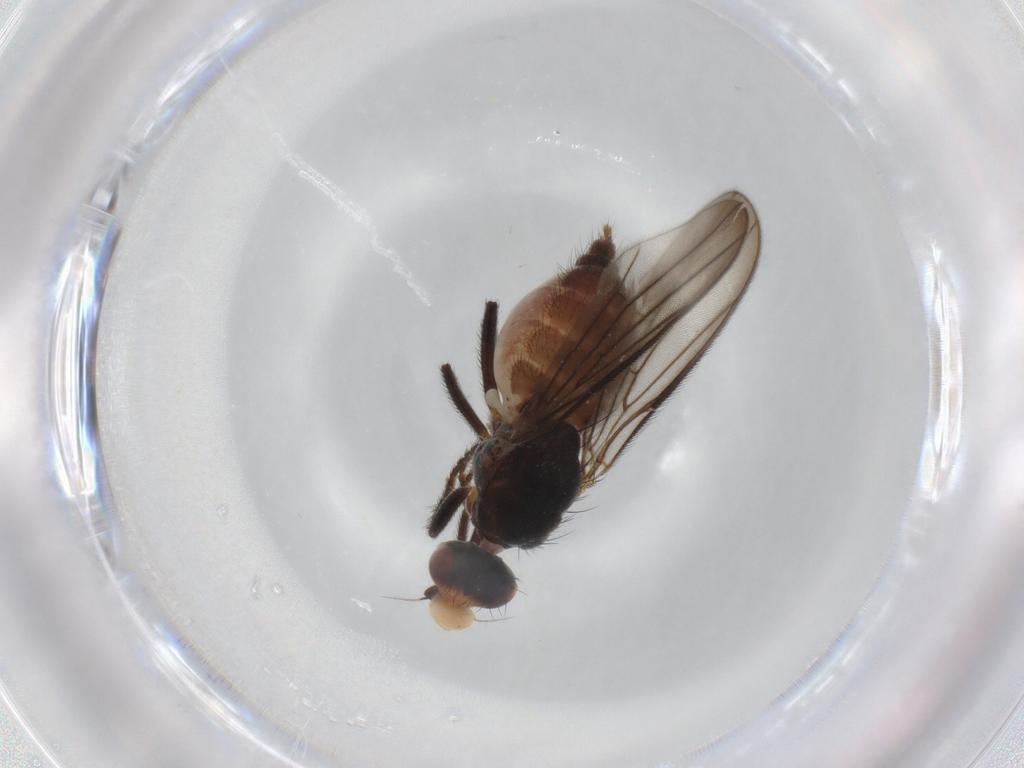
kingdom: Animalia
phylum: Arthropoda
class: Insecta
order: Diptera
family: Chloropidae
